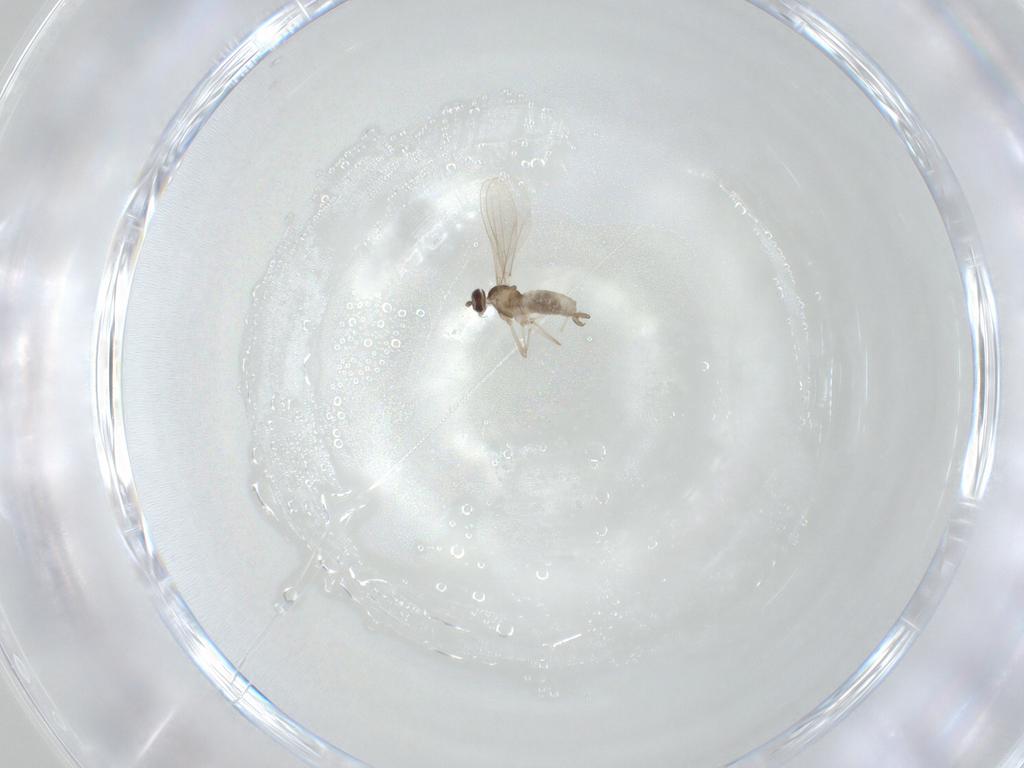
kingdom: Animalia
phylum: Arthropoda
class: Insecta
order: Diptera
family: Cecidomyiidae
